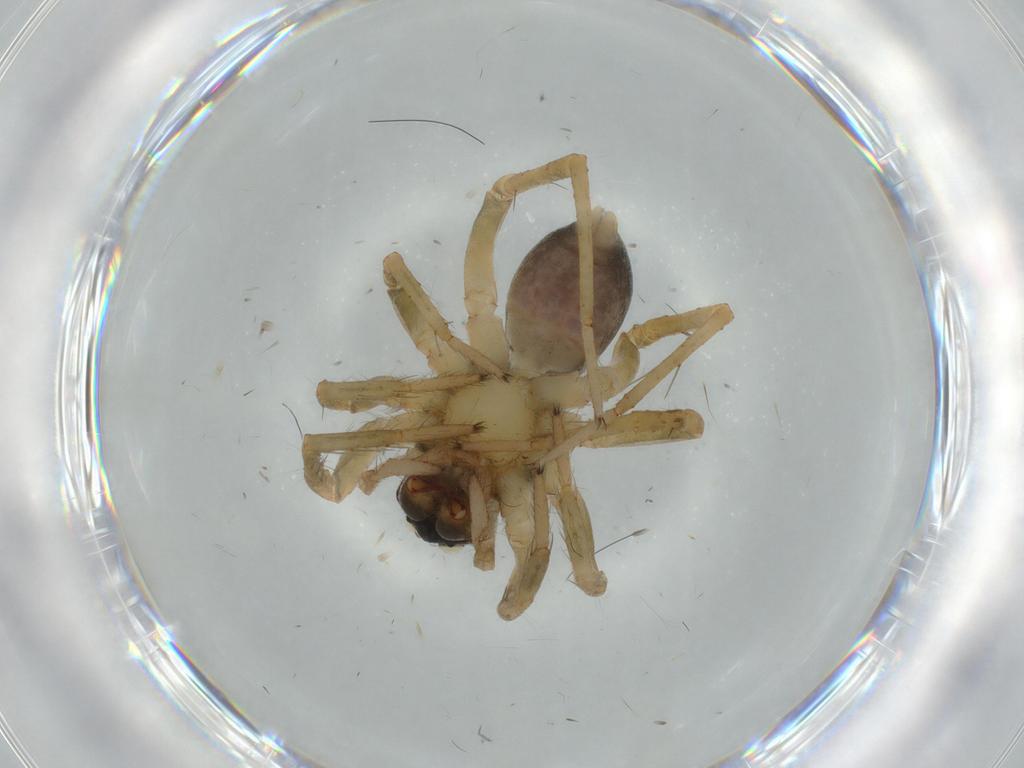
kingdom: Animalia
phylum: Arthropoda
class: Arachnida
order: Araneae
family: Lycosidae
